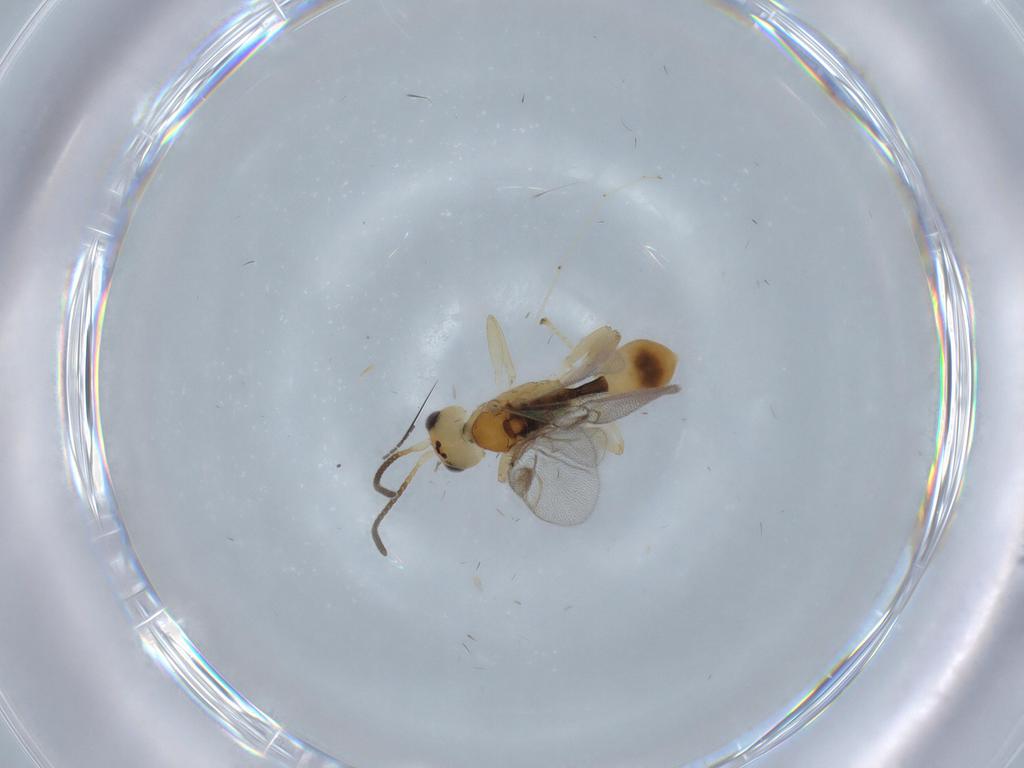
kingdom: Animalia
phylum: Arthropoda
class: Insecta
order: Hymenoptera
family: Braconidae
